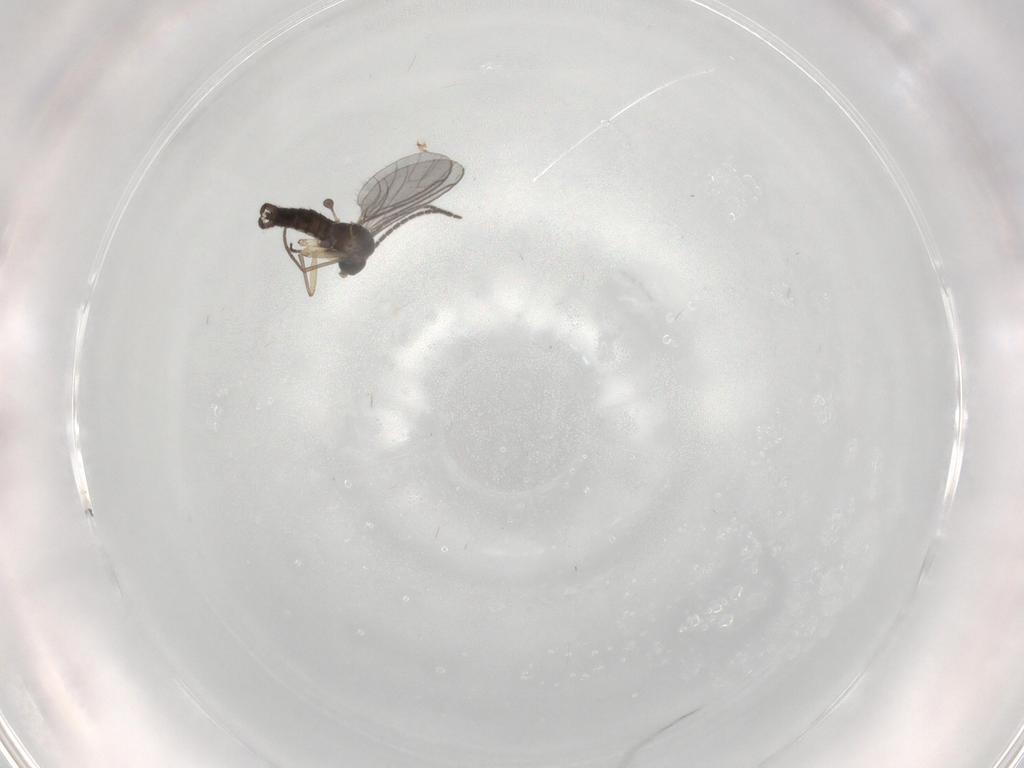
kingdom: Animalia
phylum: Arthropoda
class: Insecta
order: Diptera
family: Sciaridae
